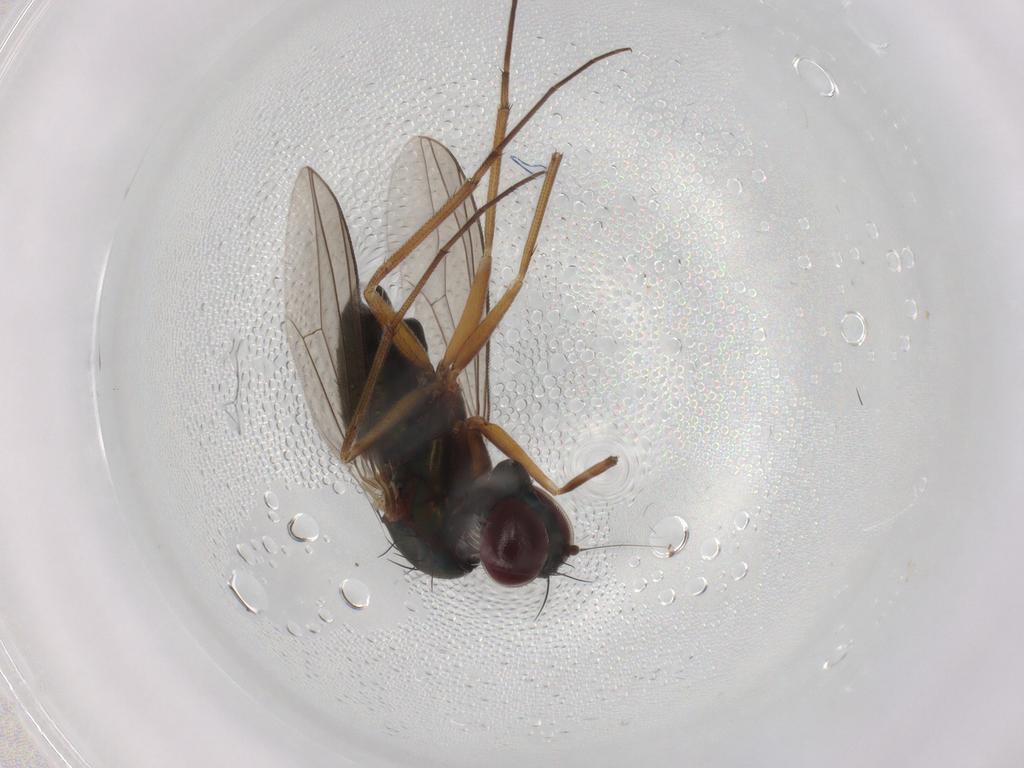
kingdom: Animalia
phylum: Arthropoda
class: Insecta
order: Diptera
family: Dolichopodidae
